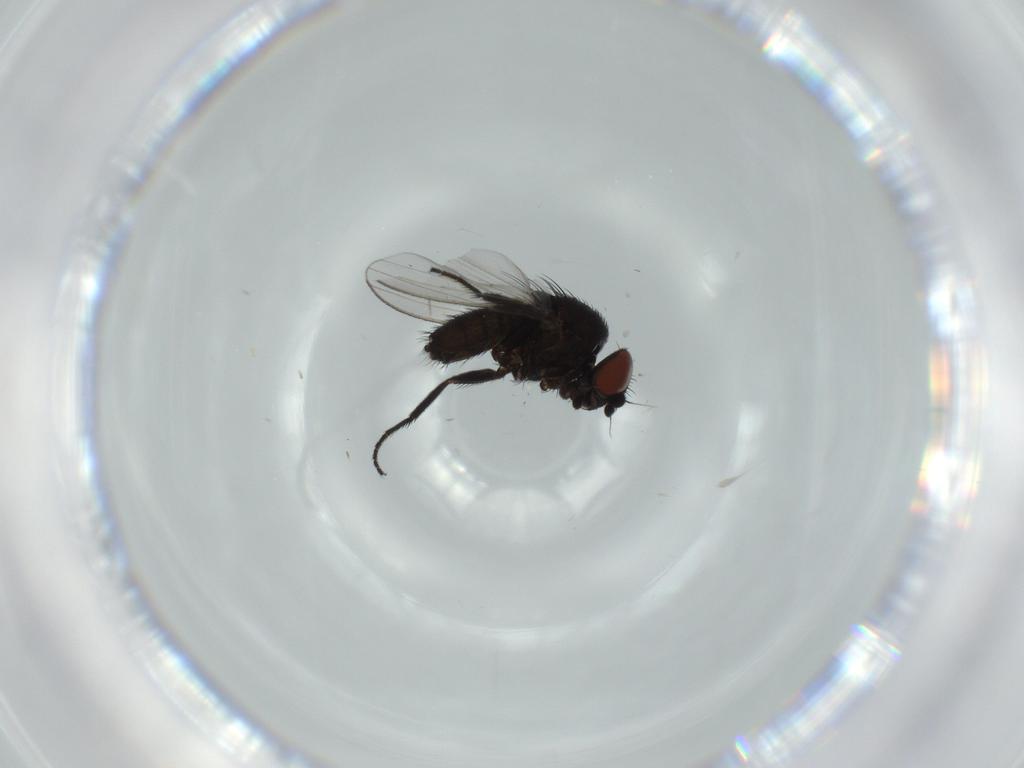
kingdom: Animalia
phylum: Arthropoda
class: Insecta
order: Diptera
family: Milichiidae
